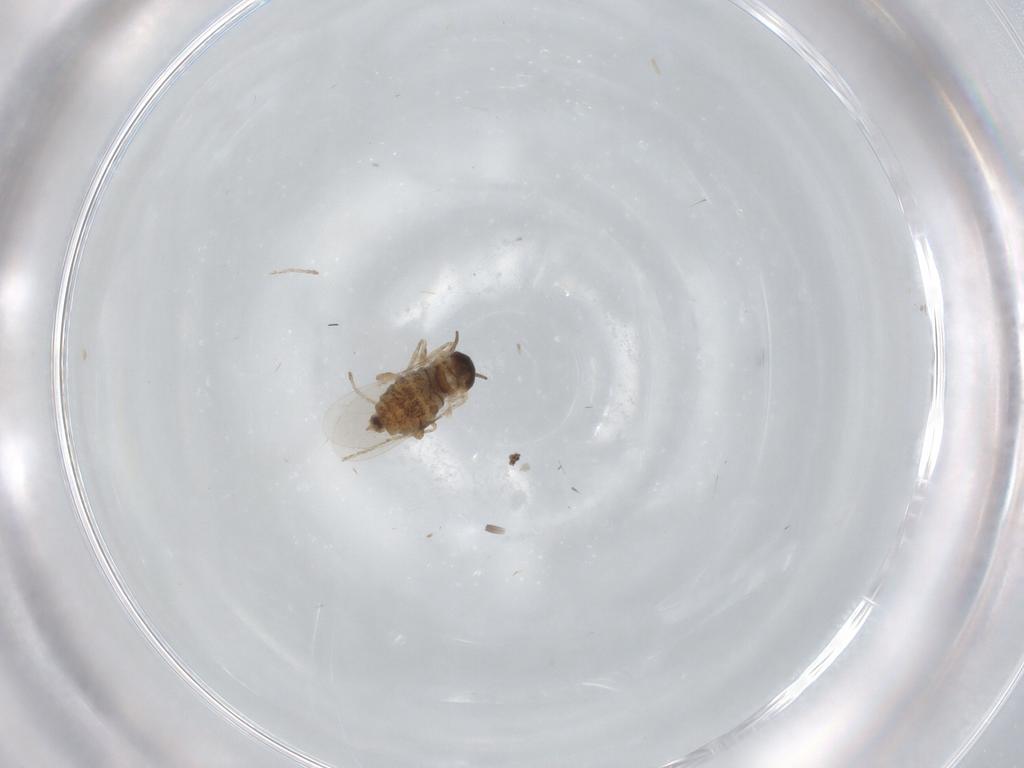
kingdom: Animalia
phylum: Arthropoda
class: Insecta
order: Diptera
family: Cecidomyiidae
